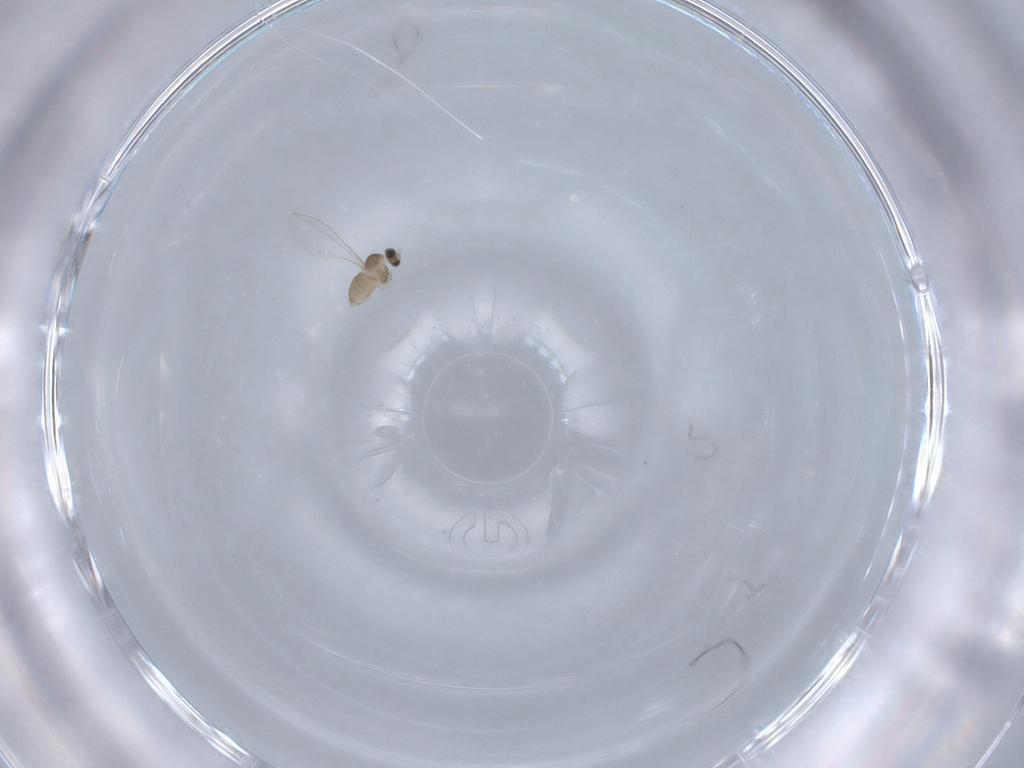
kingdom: Animalia
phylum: Arthropoda
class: Insecta
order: Diptera
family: Cecidomyiidae
